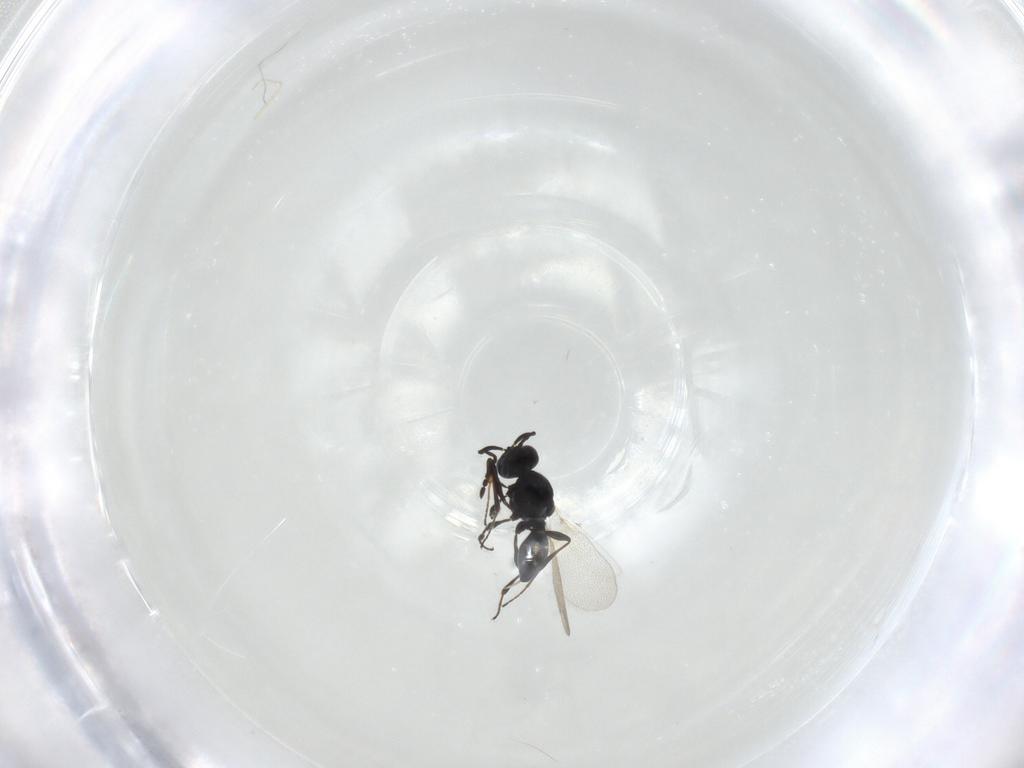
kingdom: Animalia
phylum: Arthropoda
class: Insecta
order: Hymenoptera
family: Platygastridae
